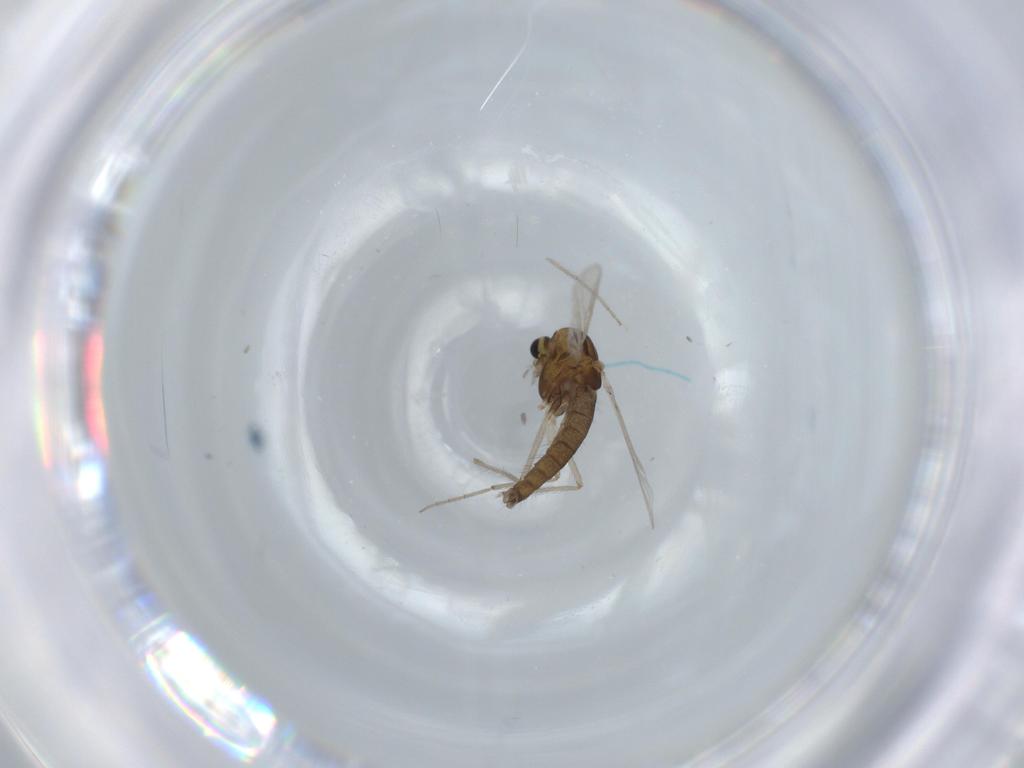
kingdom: Animalia
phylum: Arthropoda
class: Insecta
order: Diptera
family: Chironomidae
